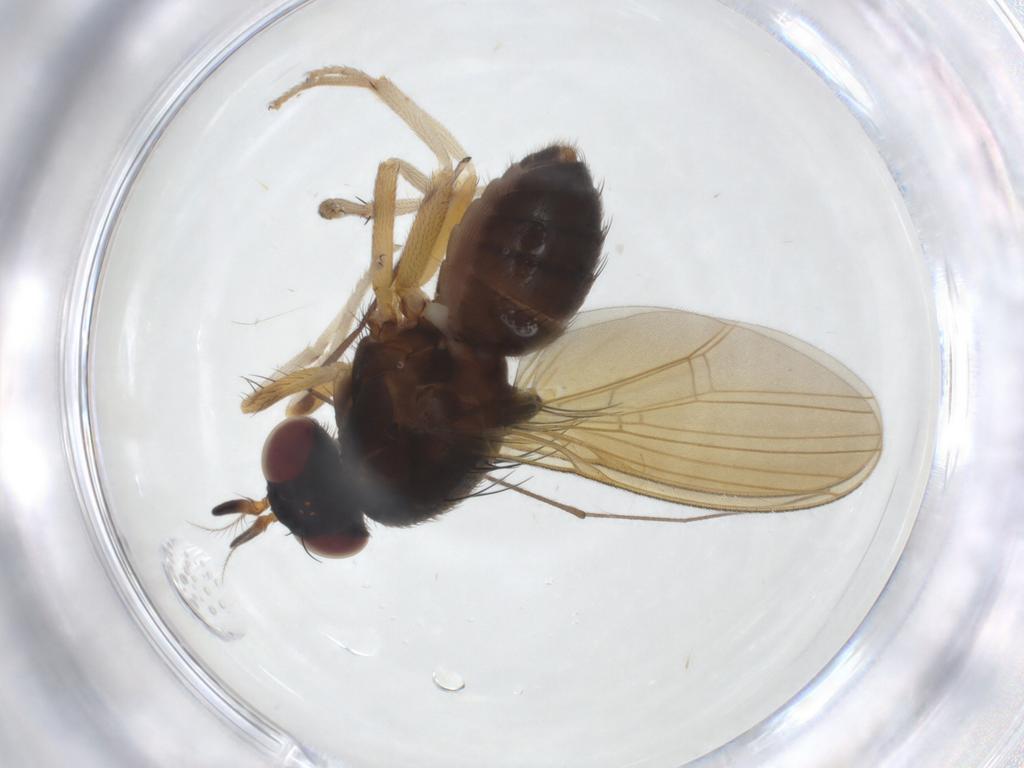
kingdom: Animalia
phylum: Arthropoda
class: Insecta
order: Diptera
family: Limoniidae
